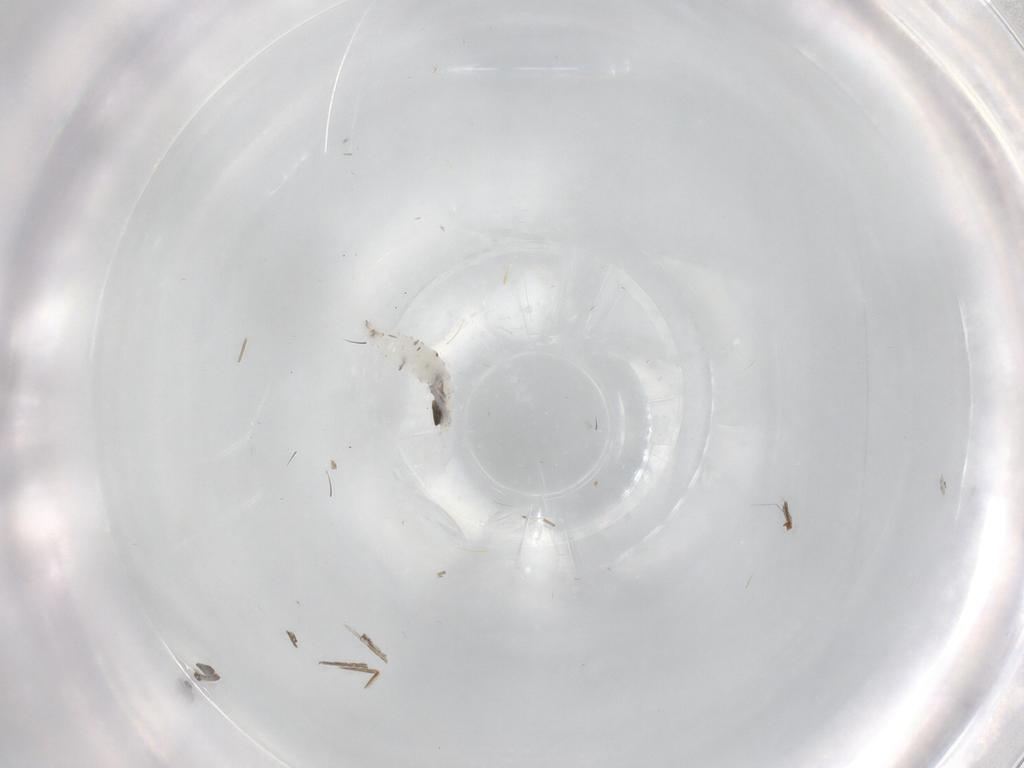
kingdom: Animalia
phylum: Arthropoda
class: Insecta
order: Diptera
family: Drosophilidae
